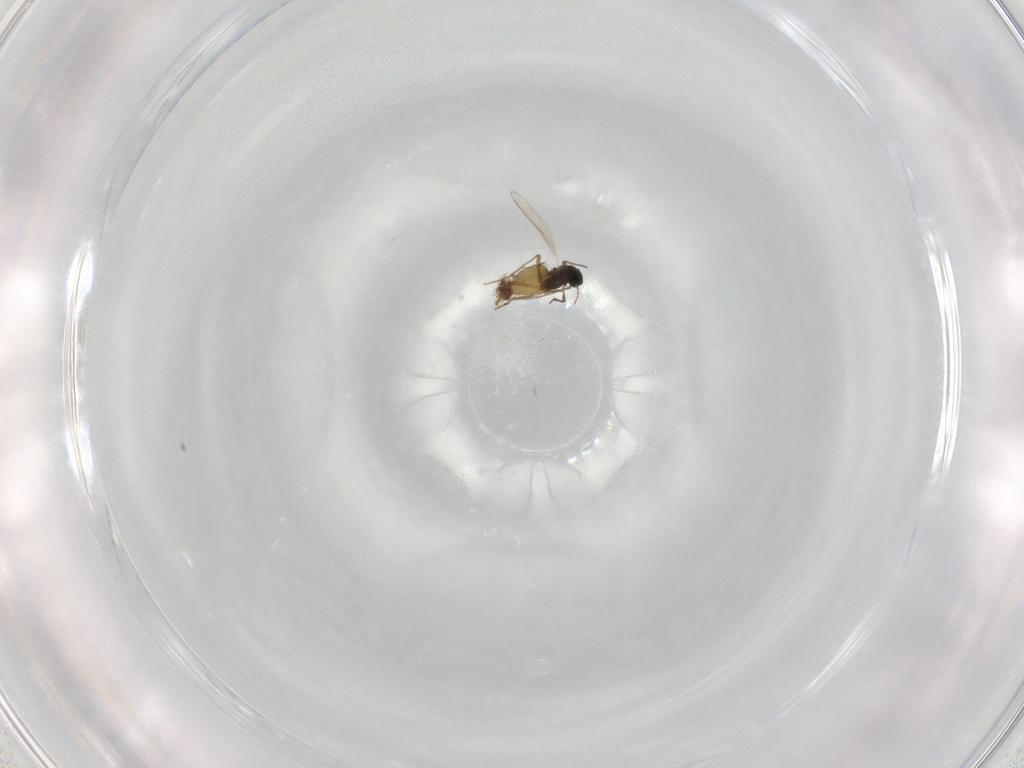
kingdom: Animalia
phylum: Arthropoda
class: Insecta
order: Diptera
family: Chironomidae
